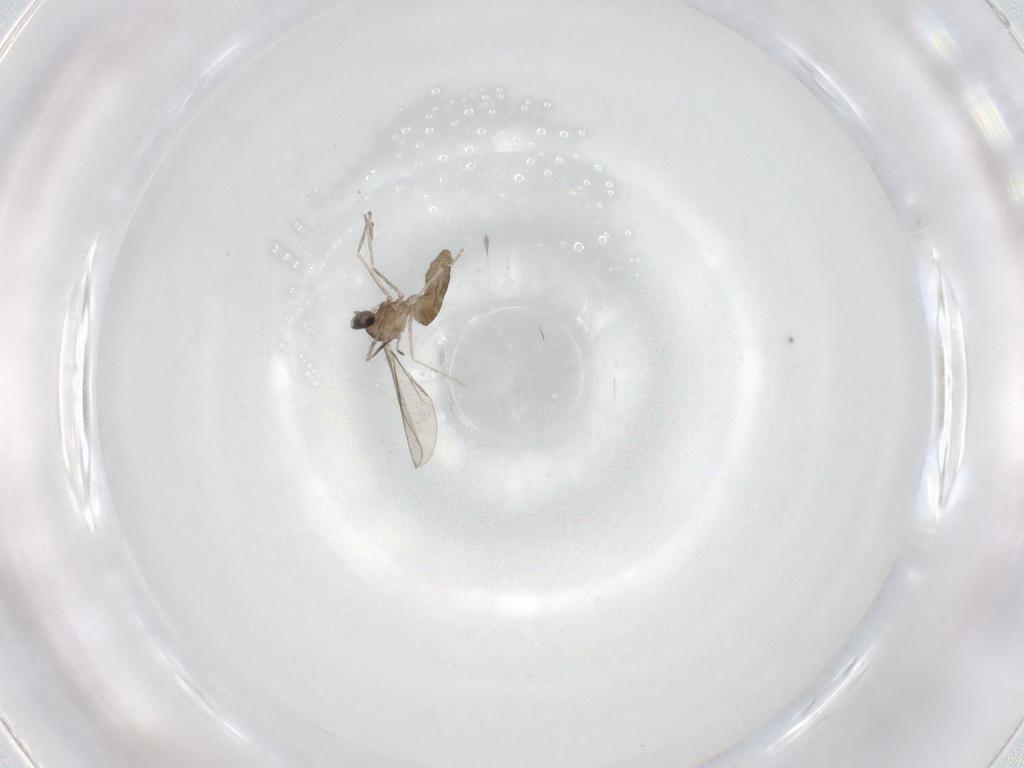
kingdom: Animalia
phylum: Arthropoda
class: Insecta
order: Diptera
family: Cecidomyiidae
